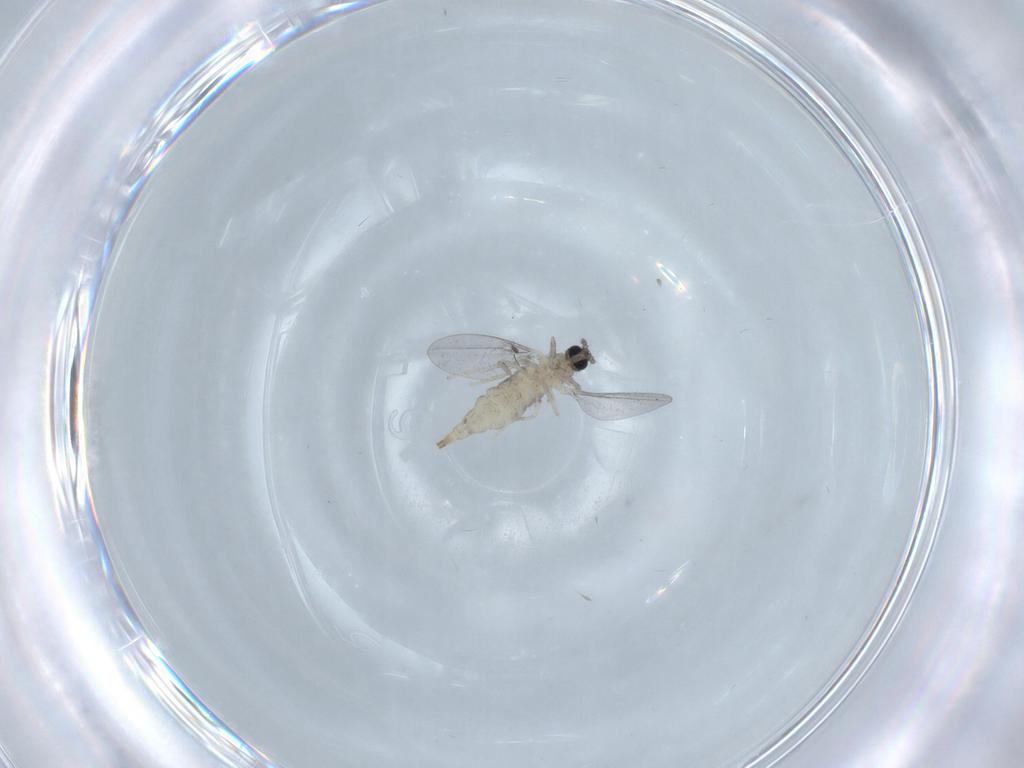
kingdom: Animalia
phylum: Arthropoda
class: Insecta
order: Diptera
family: Cecidomyiidae
